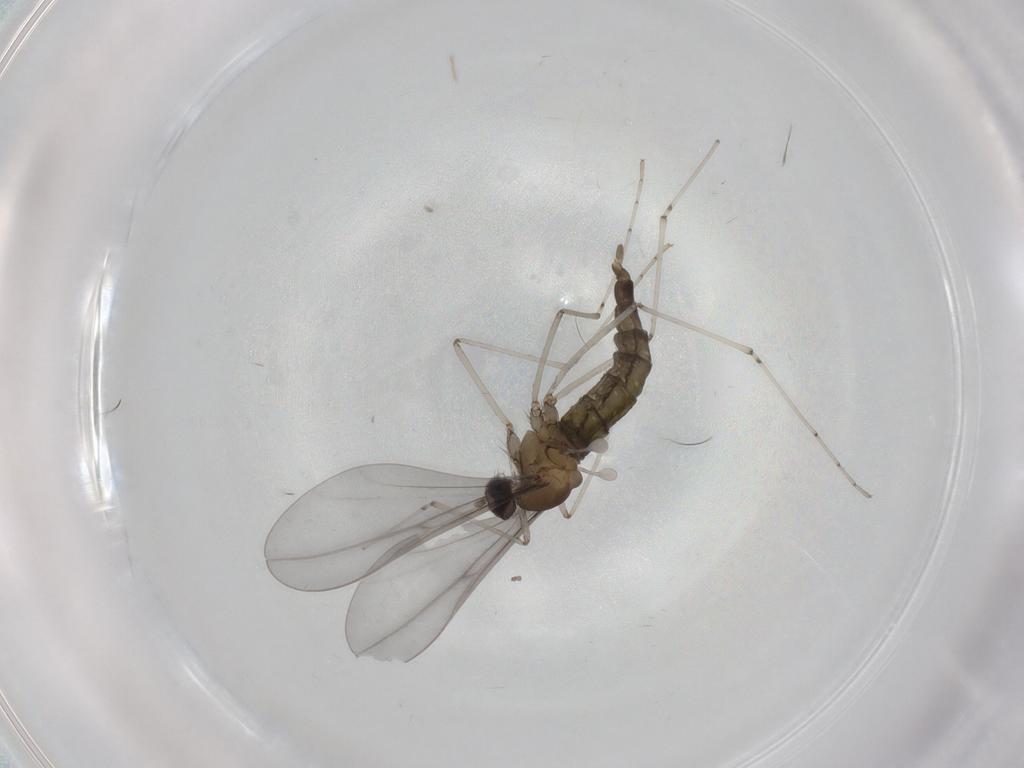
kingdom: Animalia
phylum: Arthropoda
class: Insecta
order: Diptera
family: Cecidomyiidae
